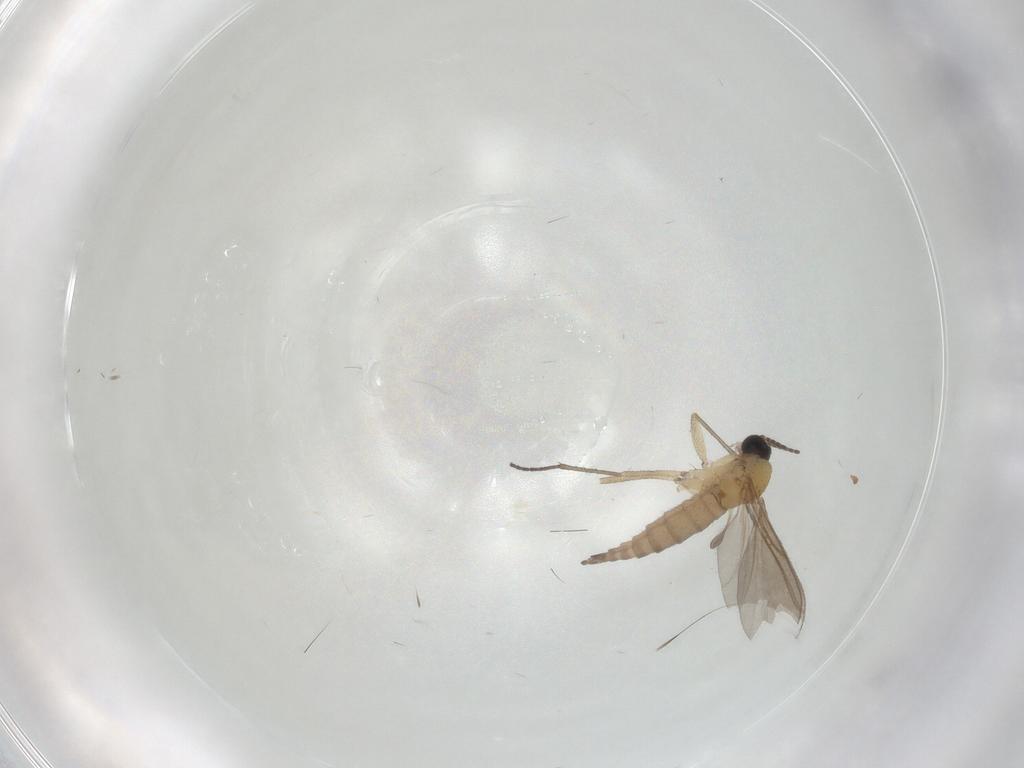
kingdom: Animalia
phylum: Arthropoda
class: Insecta
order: Diptera
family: Sciaridae
